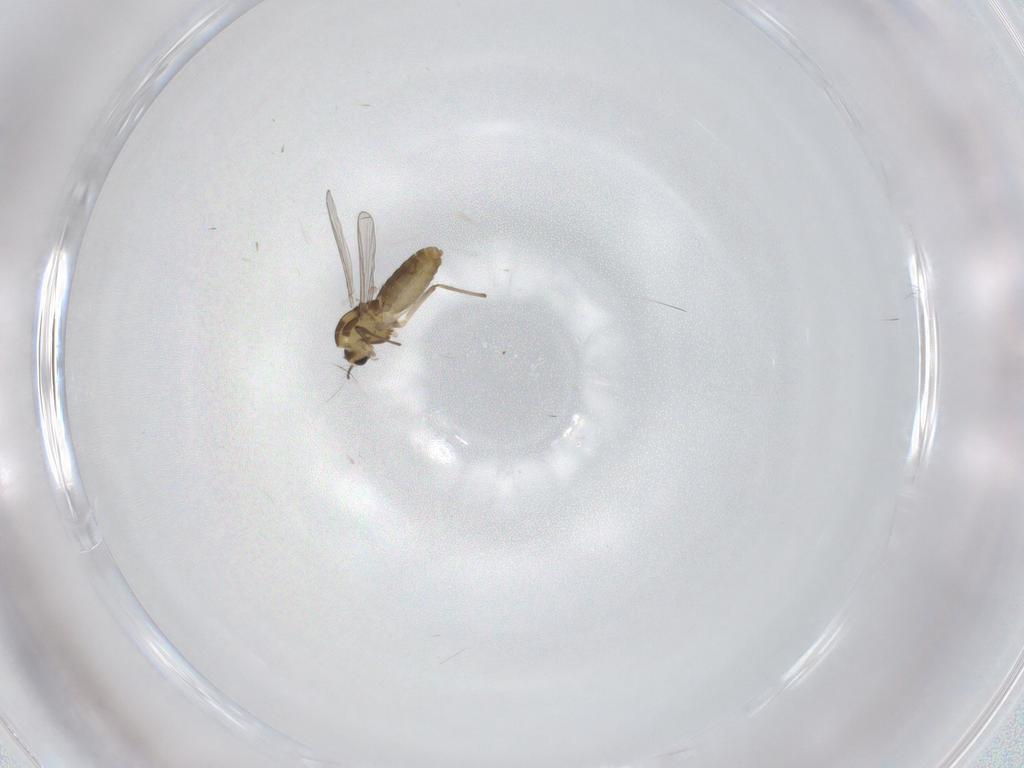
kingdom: Animalia
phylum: Arthropoda
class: Insecta
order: Diptera
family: Chironomidae
